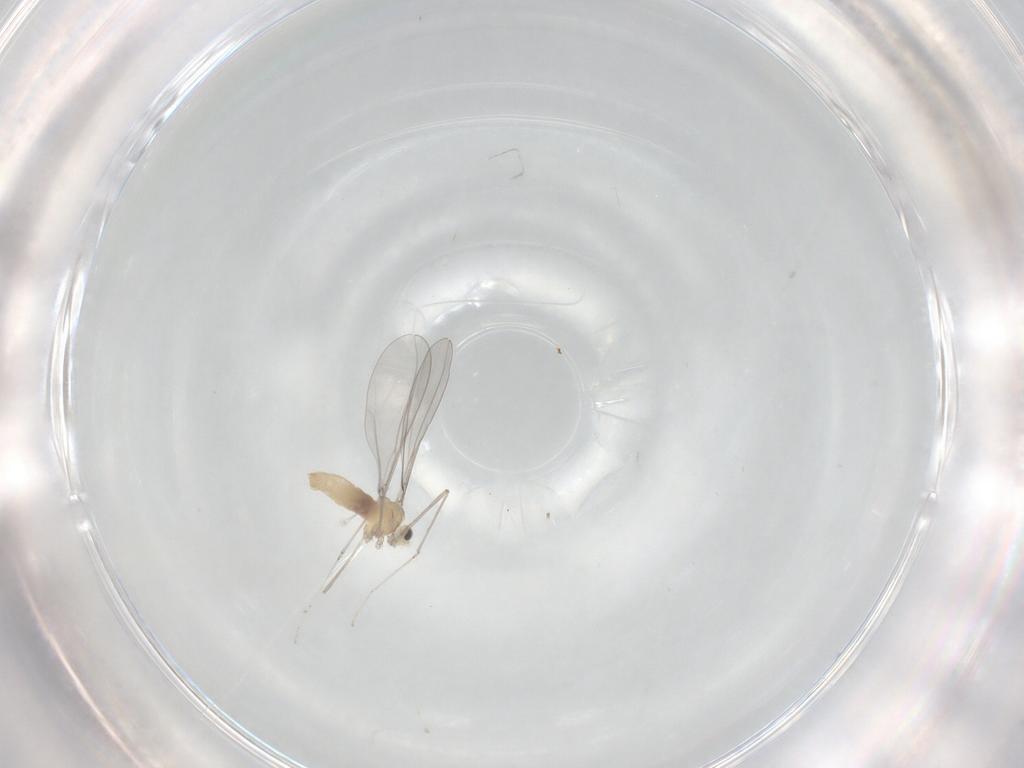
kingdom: Animalia
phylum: Arthropoda
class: Insecta
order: Diptera
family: Cecidomyiidae
